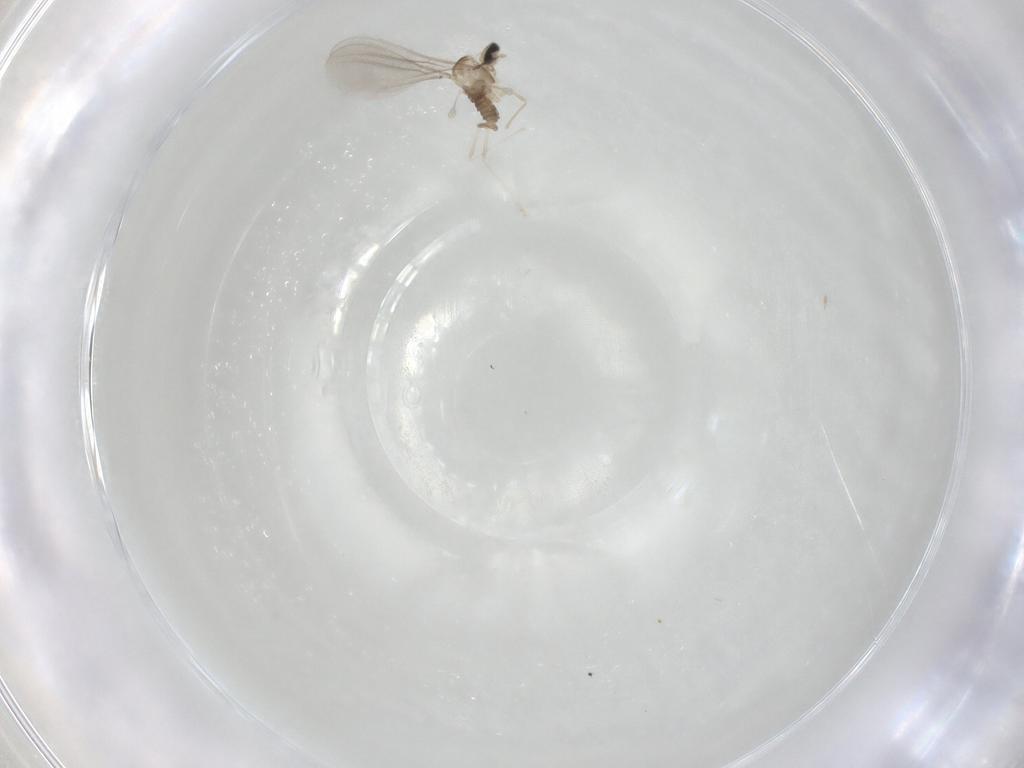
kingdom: Animalia
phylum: Arthropoda
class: Insecta
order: Diptera
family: Cecidomyiidae
